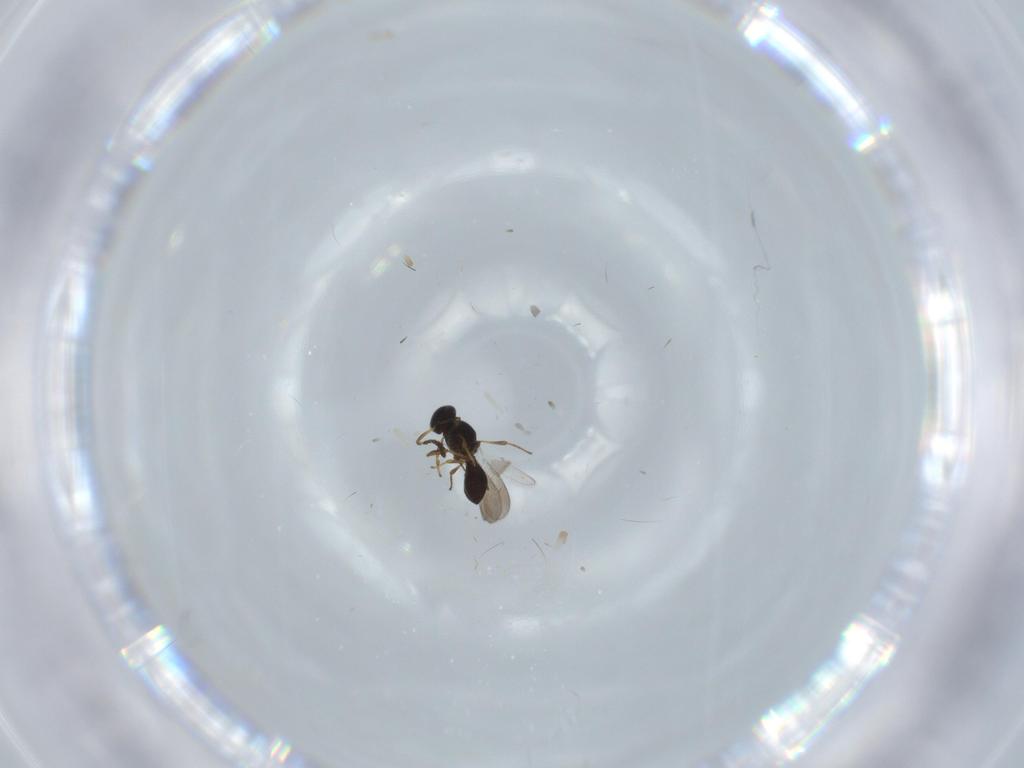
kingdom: Animalia
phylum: Arthropoda
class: Insecta
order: Hymenoptera
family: Platygastridae
